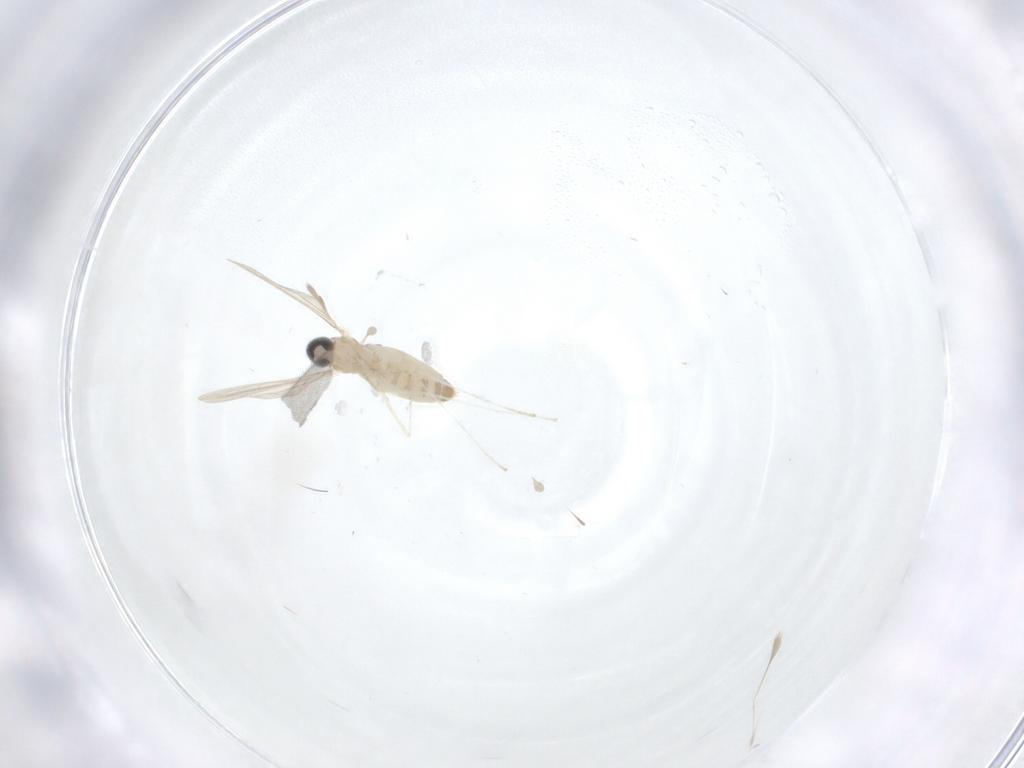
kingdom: Animalia
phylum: Arthropoda
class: Insecta
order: Diptera
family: Cecidomyiidae
